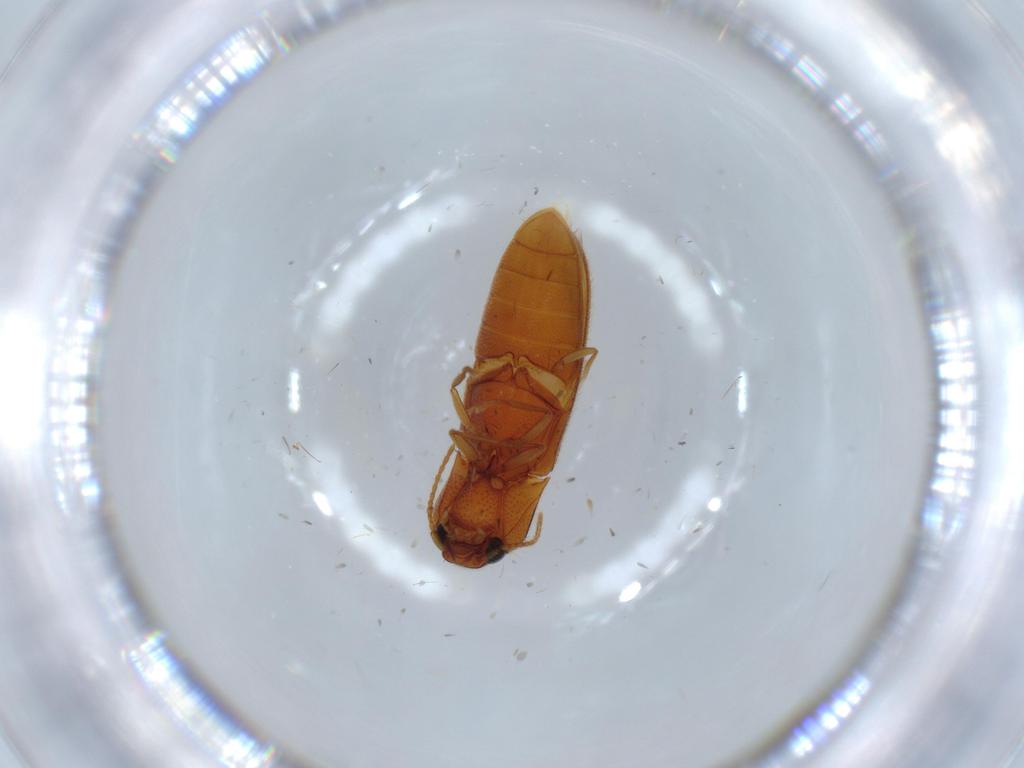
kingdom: Animalia
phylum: Arthropoda
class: Insecta
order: Coleoptera
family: Elateridae
